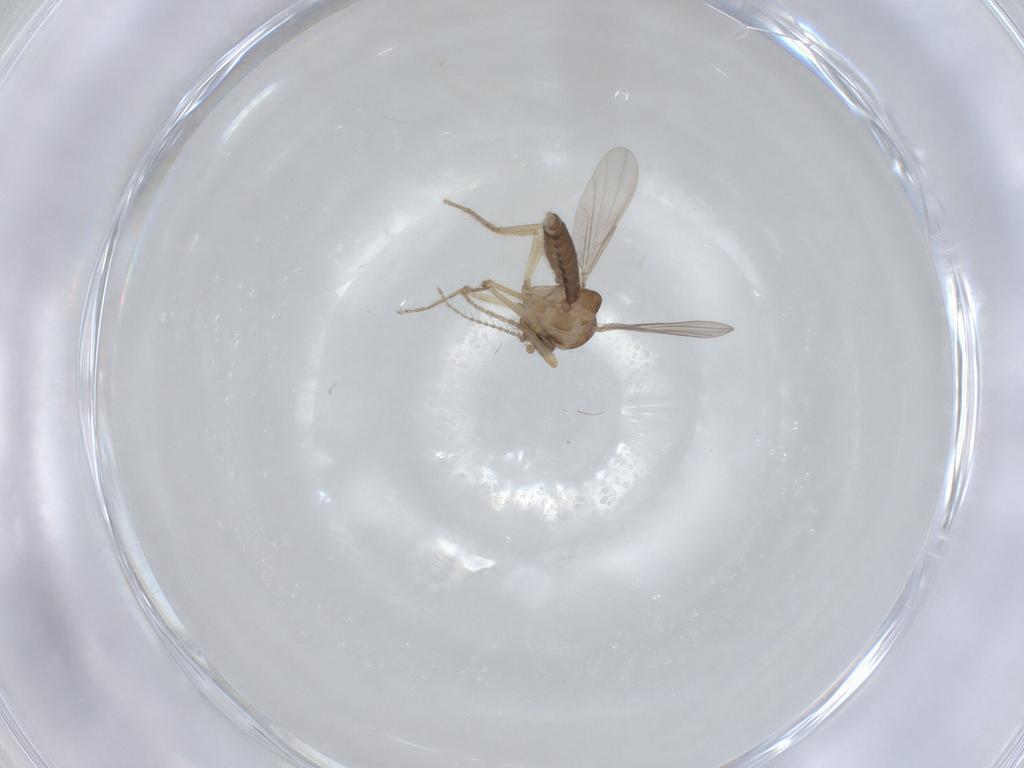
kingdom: Animalia
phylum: Arthropoda
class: Insecta
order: Diptera
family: Ceratopogonidae
